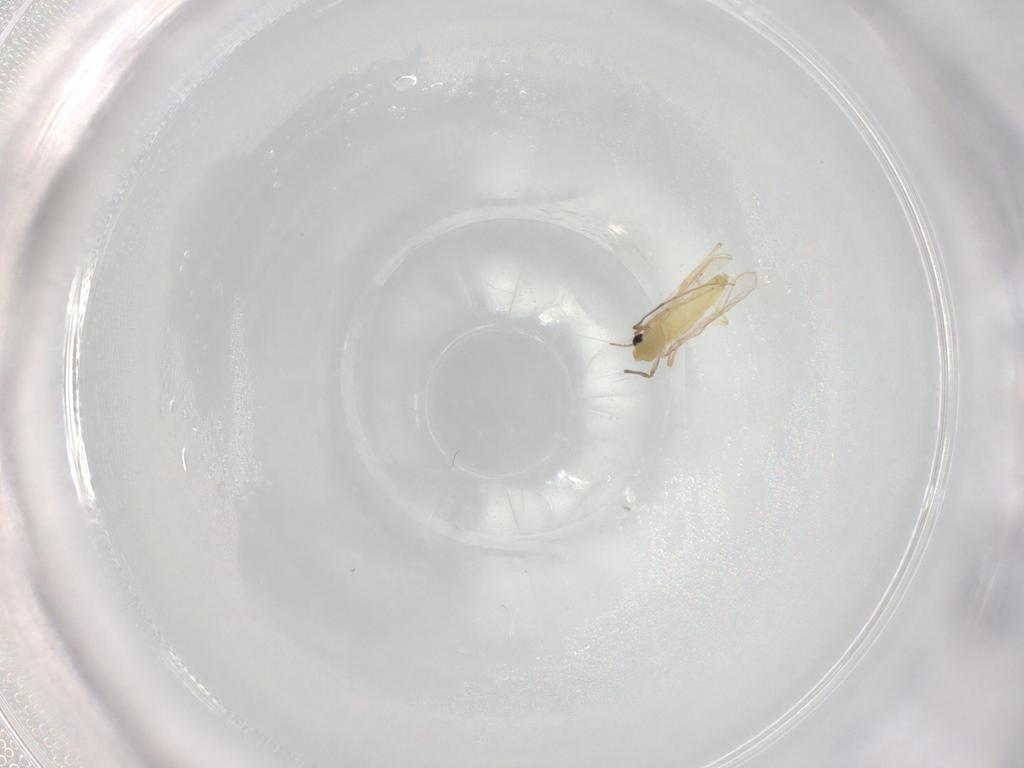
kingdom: Animalia
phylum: Arthropoda
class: Insecta
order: Diptera
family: Chironomidae
